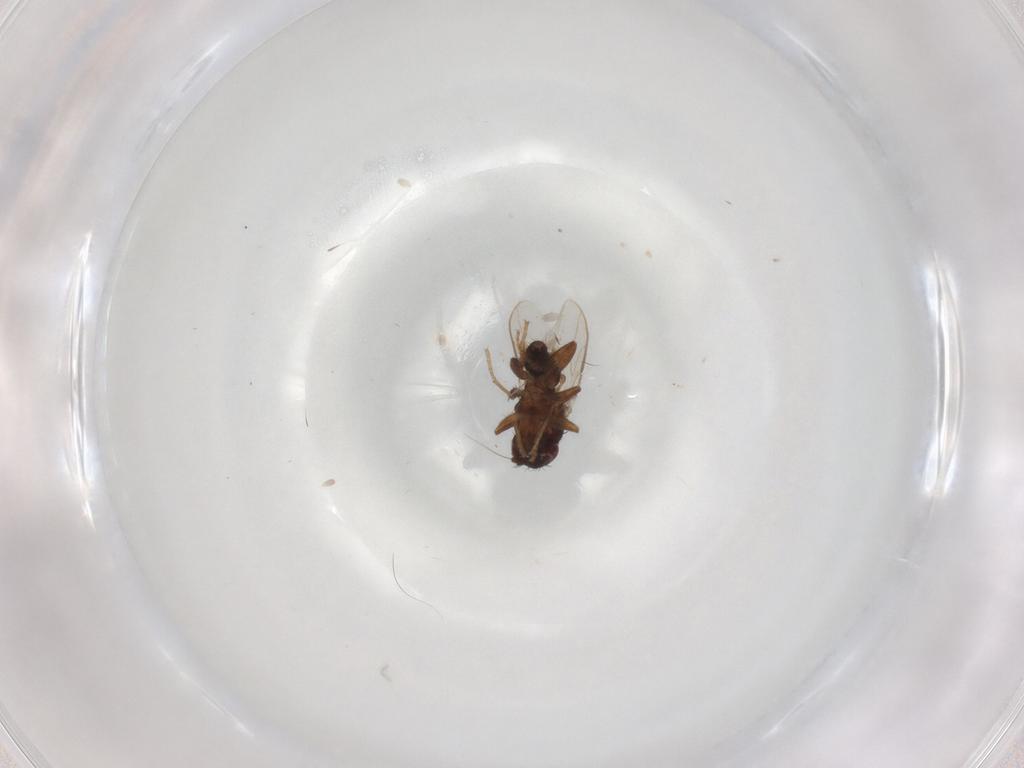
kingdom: Animalia
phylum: Arthropoda
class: Insecta
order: Diptera
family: Sphaeroceridae
